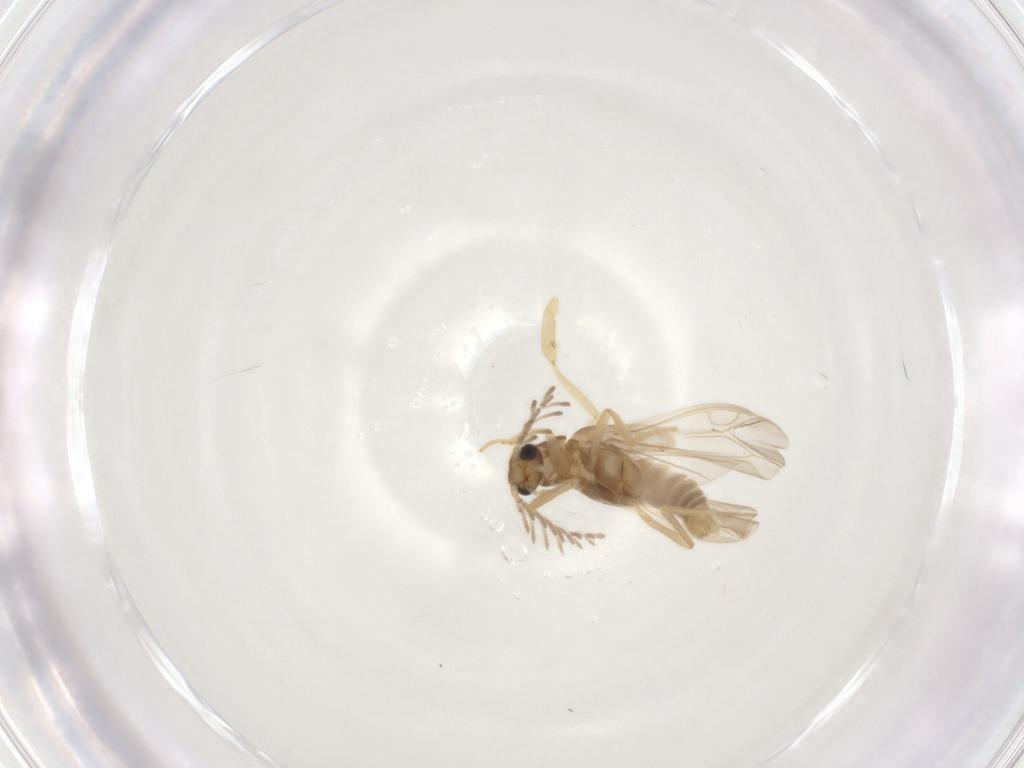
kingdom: Animalia
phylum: Arthropoda
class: Insecta
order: Coleoptera
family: Phengodidae
